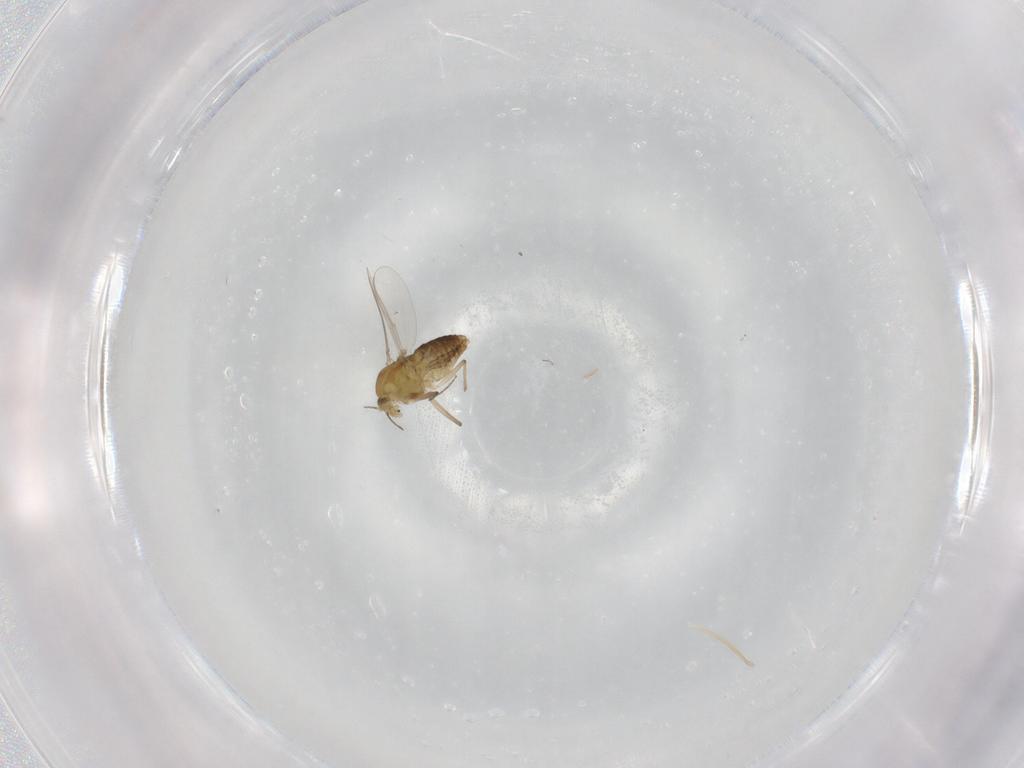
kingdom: Animalia
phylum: Arthropoda
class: Insecta
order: Diptera
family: Chironomidae
